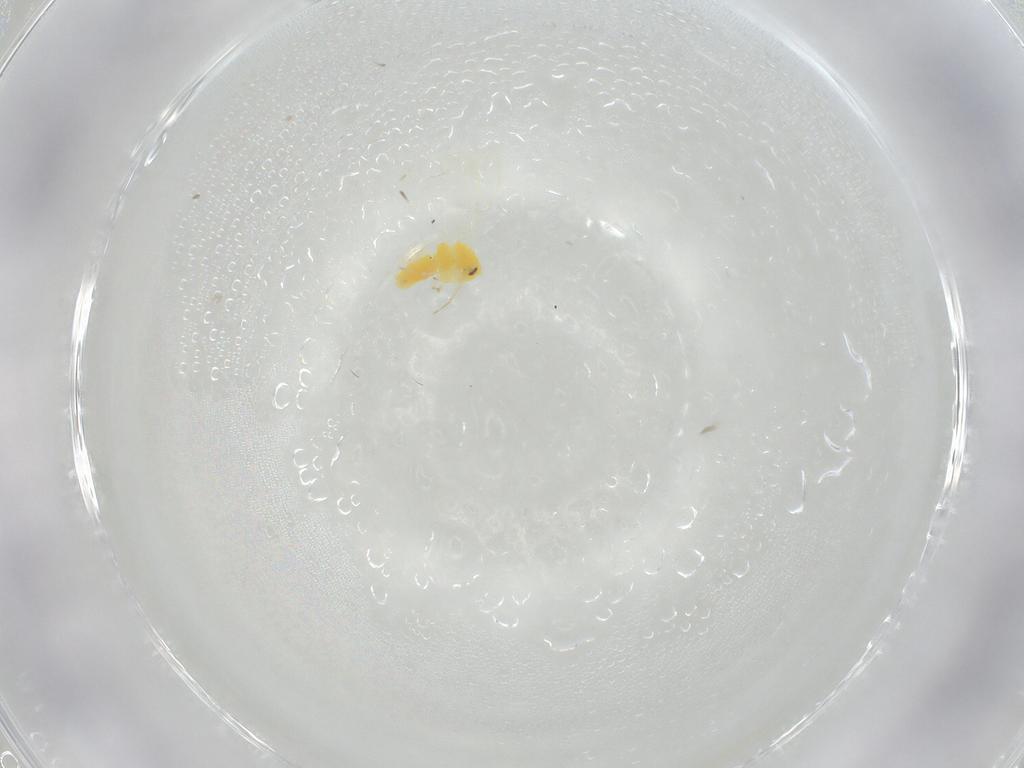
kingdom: Animalia
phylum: Arthropoda
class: Insecta
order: Hemiptera
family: Aleyrodidae
